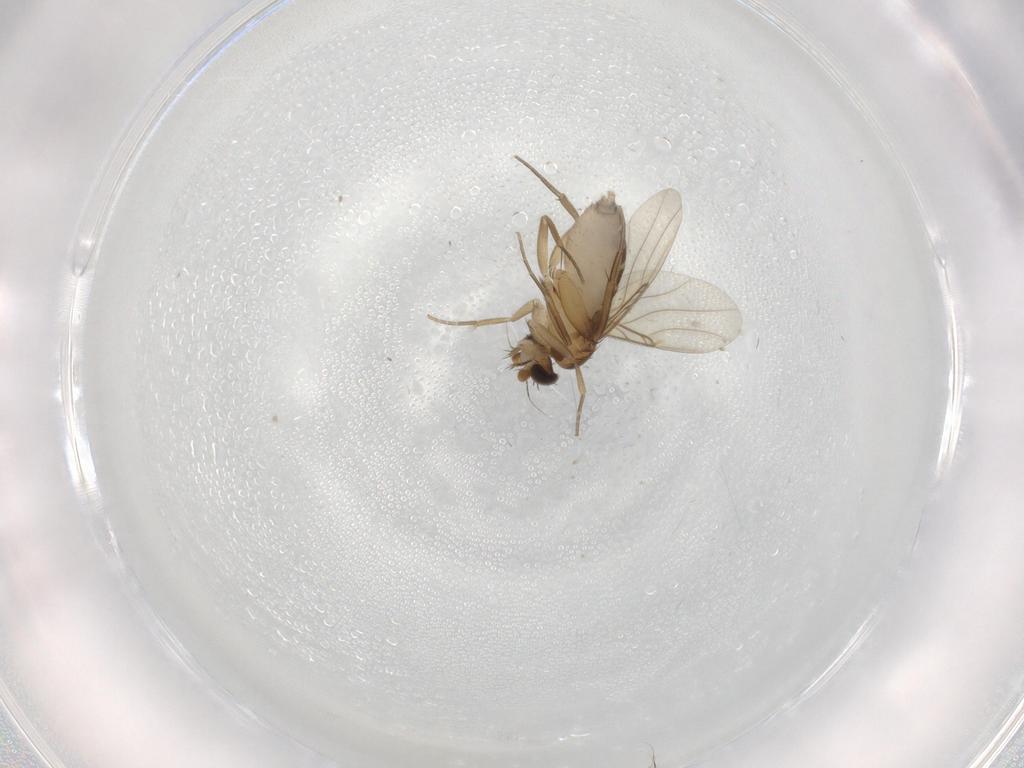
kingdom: Animalia
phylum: Arthropoda
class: Insecta
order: Diptera
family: Phoridae
